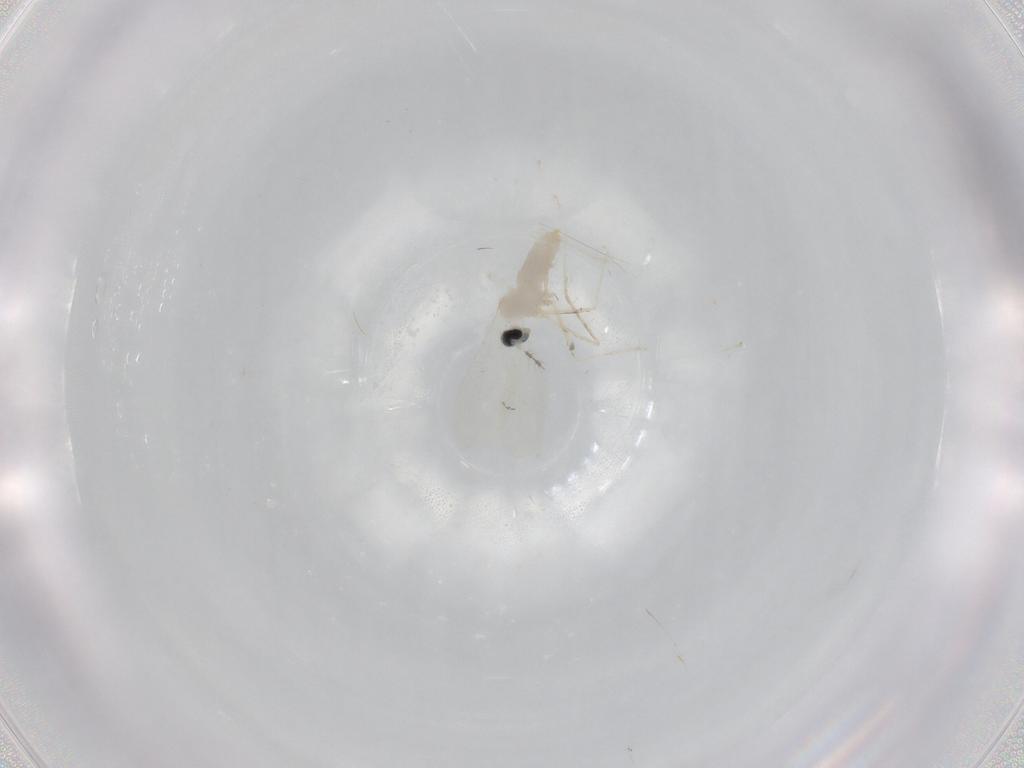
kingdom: Animalia
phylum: Arthropoda
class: Insecta
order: Diptera
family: Cecidomyiidae
